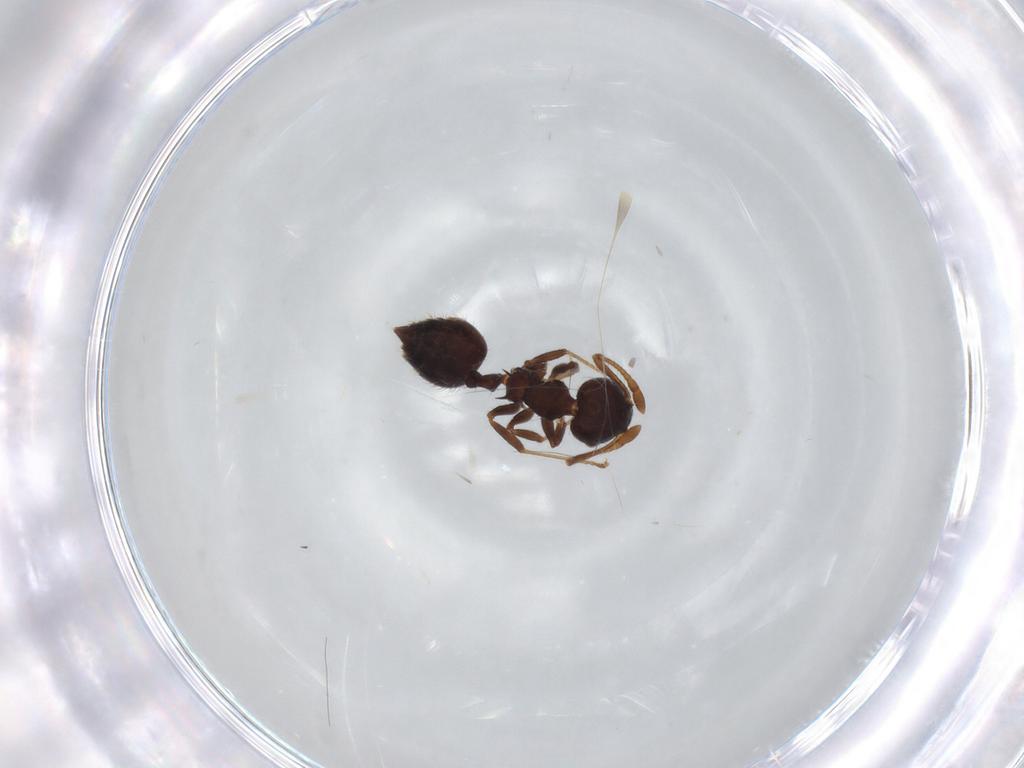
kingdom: Animalia
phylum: Arthropoda
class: Insecta
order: Hymenoptera
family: Formicidae
